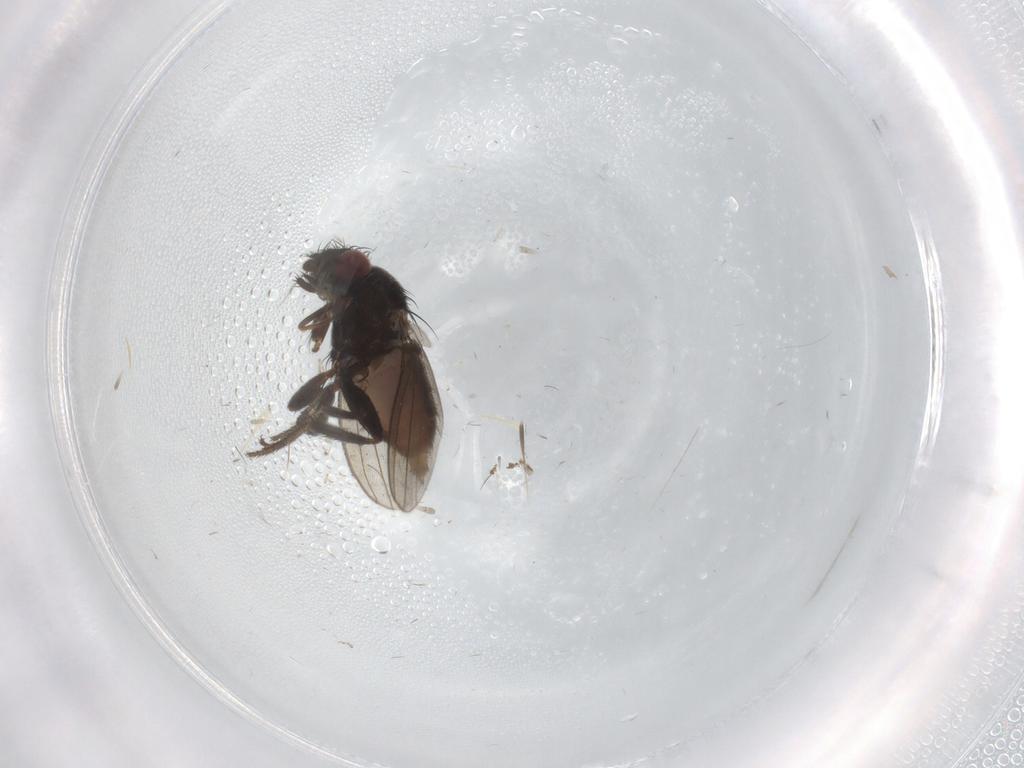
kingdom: Animalia
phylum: Arthropoda
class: Insecta
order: Diptera
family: Milichiidae
